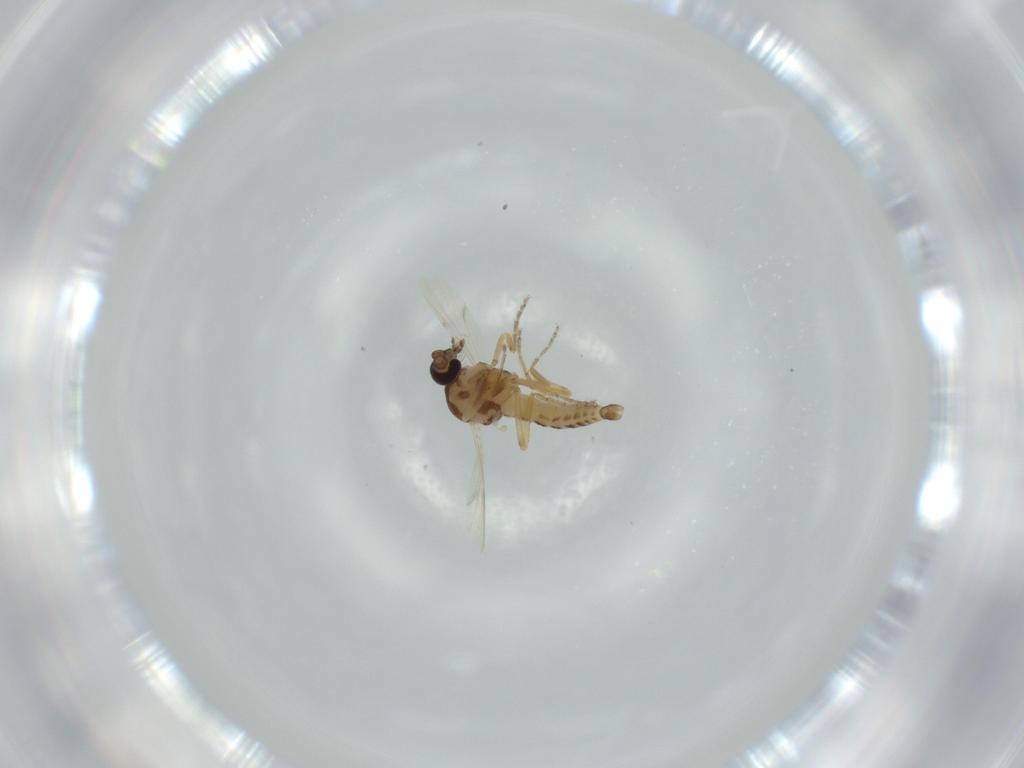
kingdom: Animalia
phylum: Arthropoda
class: Insecta
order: Diptera
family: Ceratopogonidae
